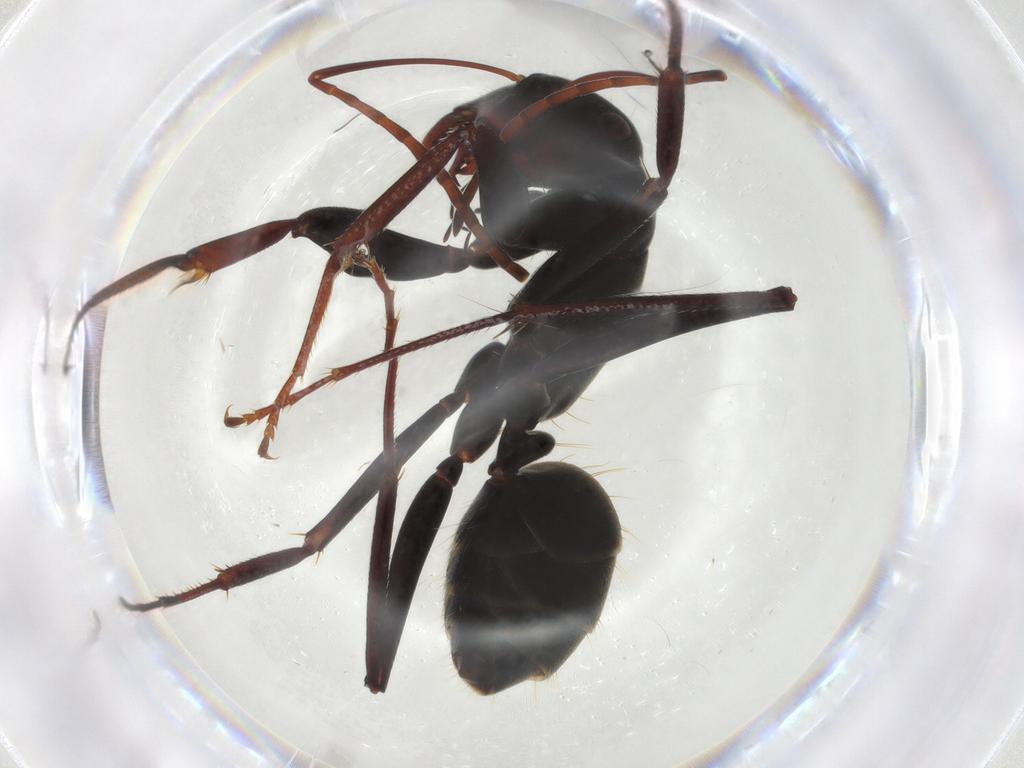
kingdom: Animalia
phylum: Arthropoda
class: Insecta
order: Hymenoptera
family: Formicidae
